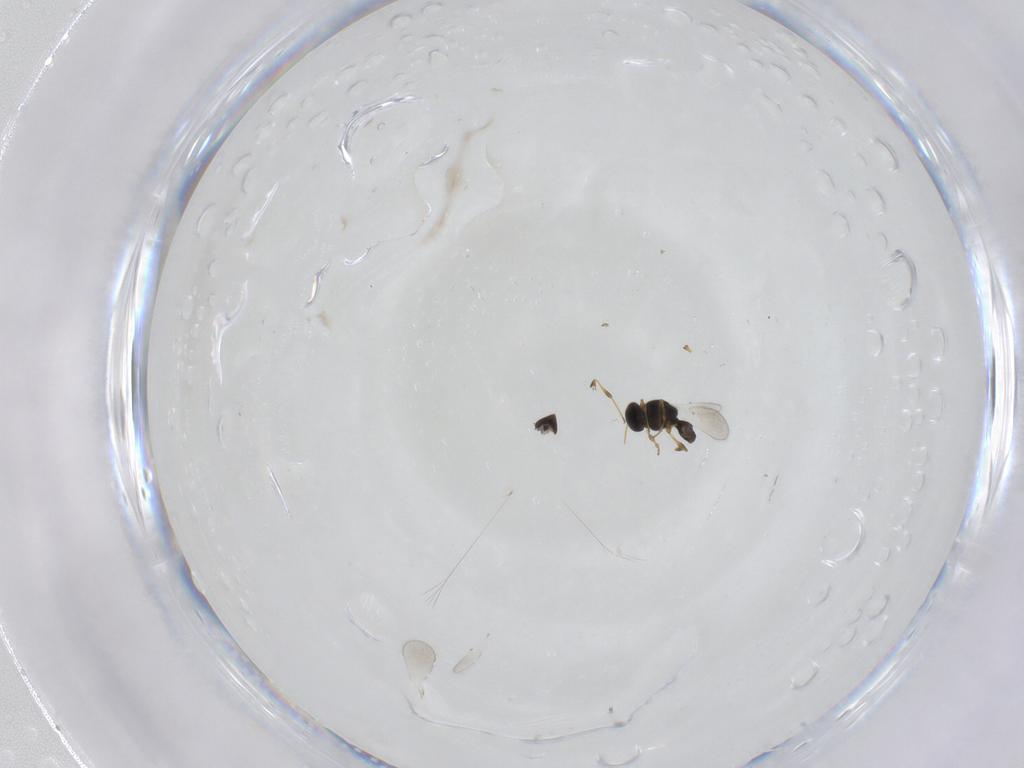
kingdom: Animalia
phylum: Arthropoda
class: Insecta
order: Hymenoptera
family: Platygastridae
